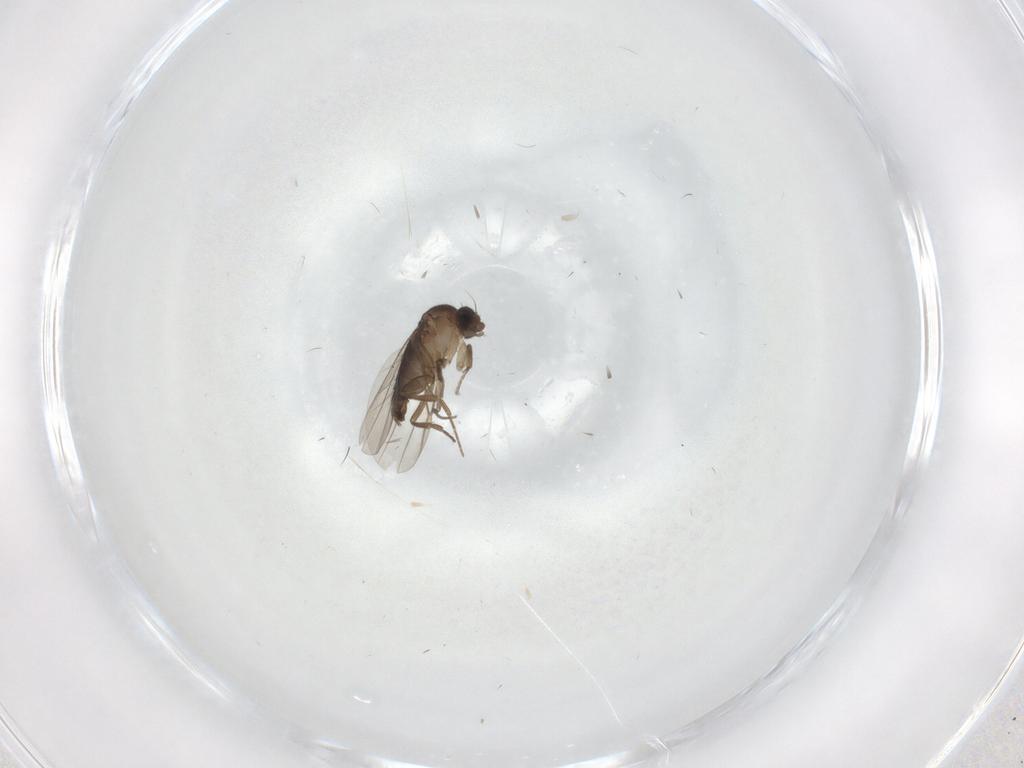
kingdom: Animalia
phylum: Arthropoda
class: Insecta
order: Diptera
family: Phoridae
